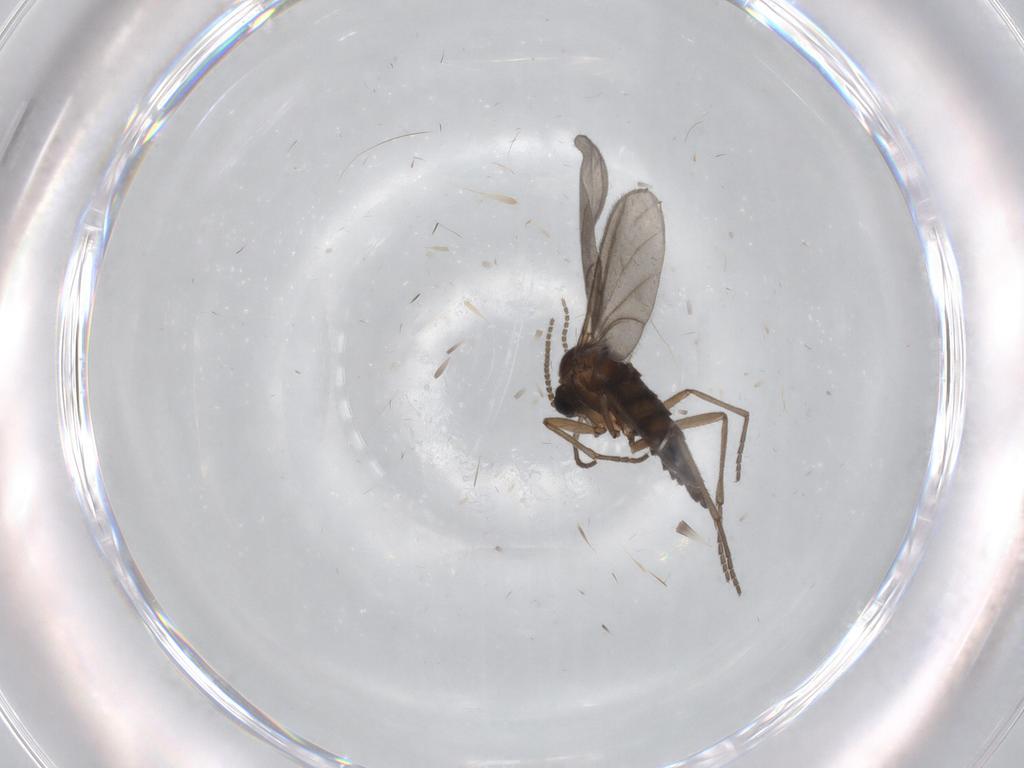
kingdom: Animalia
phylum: Arthropoda
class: Insecta
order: Diptera
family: Sciaridae
